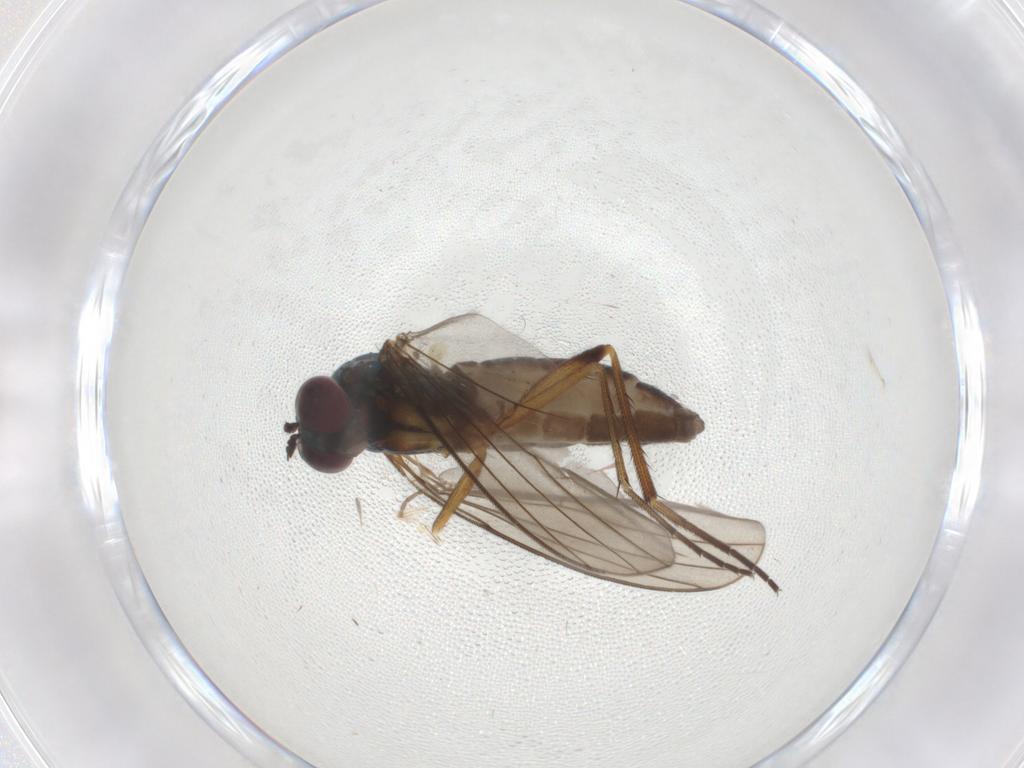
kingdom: Animalia
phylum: Arthropoda
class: Insecta
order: Diptera
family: Dolichopodidae
